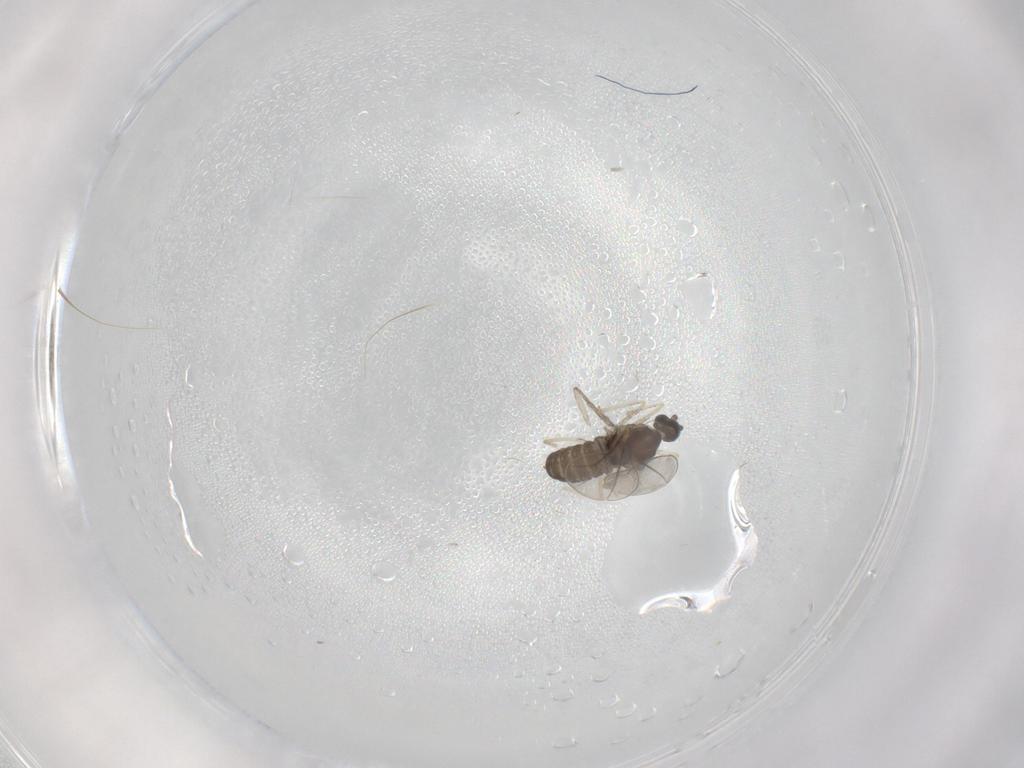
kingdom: Animalia
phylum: Arthropoda
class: Insecta
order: Diptera
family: Cecidomyiidae
